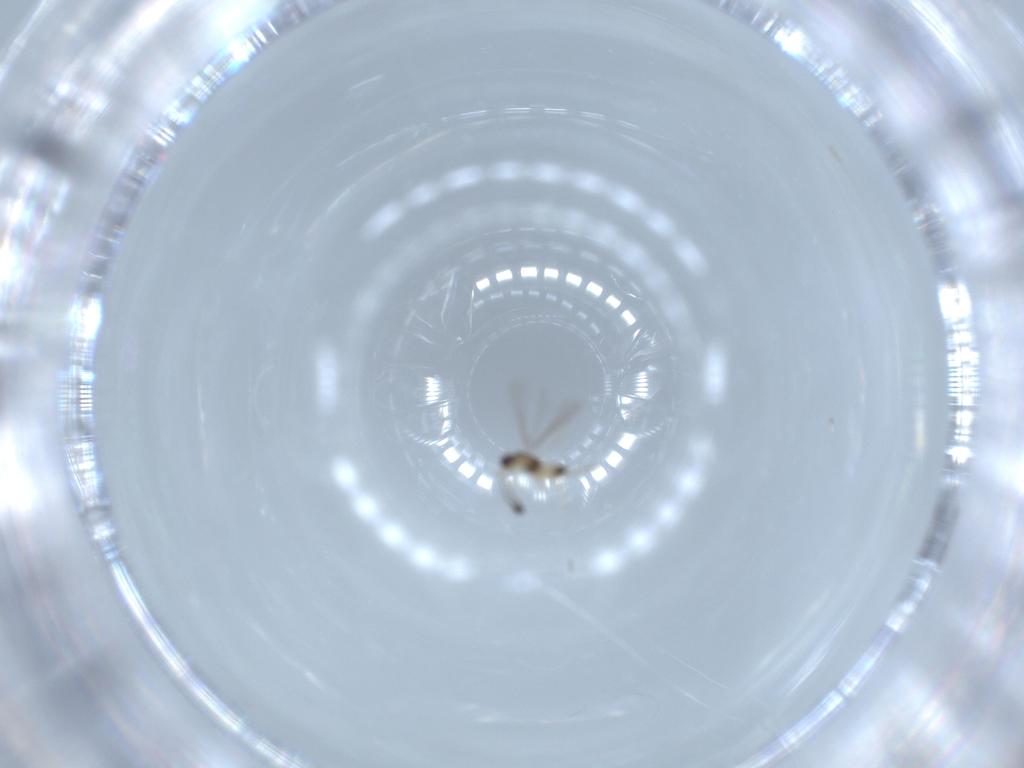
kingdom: Animalia
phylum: Arthropoda
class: Insecta
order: Hymenoptera
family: Mymaridae
